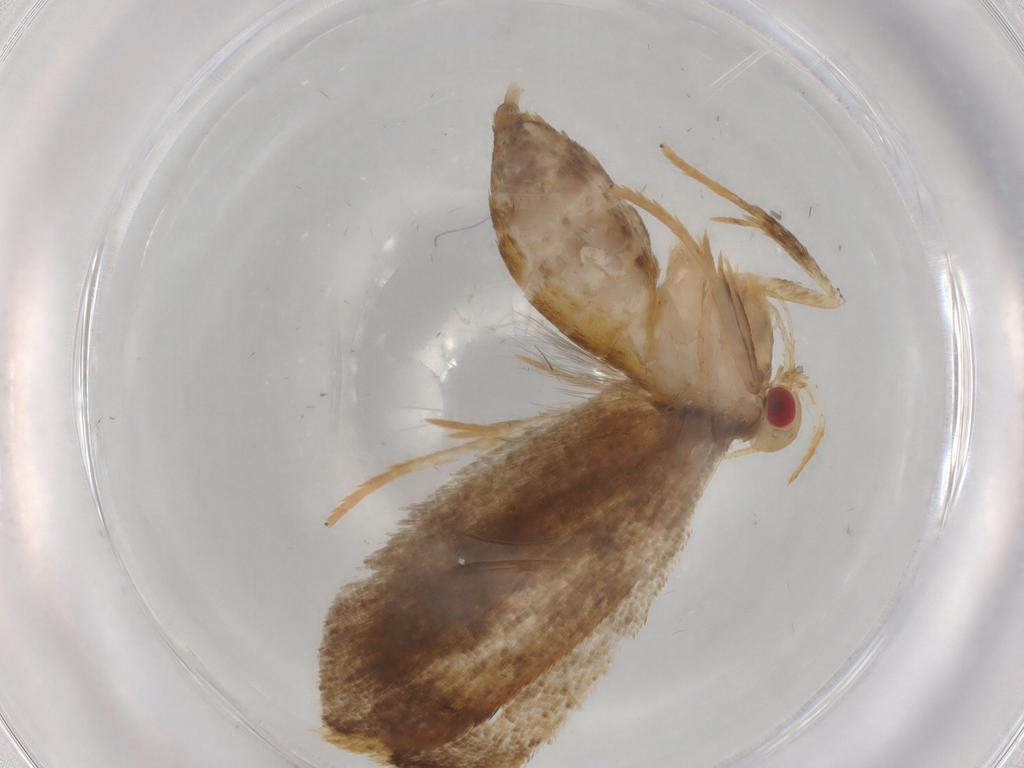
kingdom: Animalia
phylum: Arthropoda
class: Insecta
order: Lepidoptera
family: Oecophoridae
